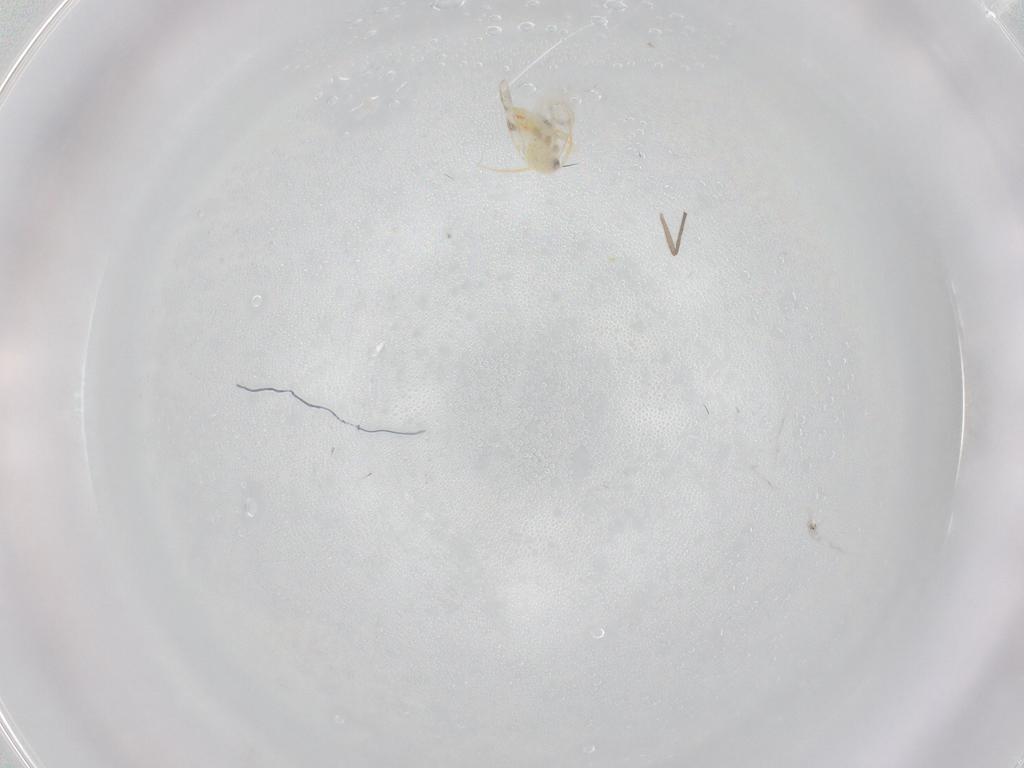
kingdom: Animalia
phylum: Arthropoda
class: Insecta
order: Hemiptera
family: Aleyrodidae
